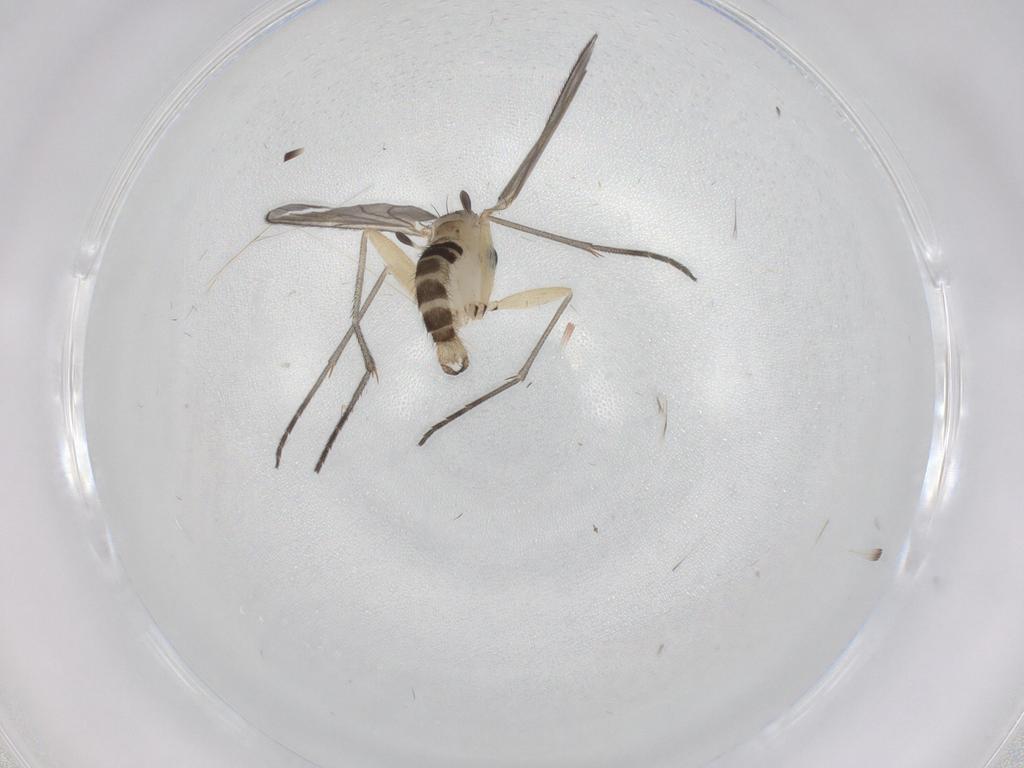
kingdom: Animalia
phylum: Arthropoda
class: Insecta
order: Diptera
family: Sciaridae
